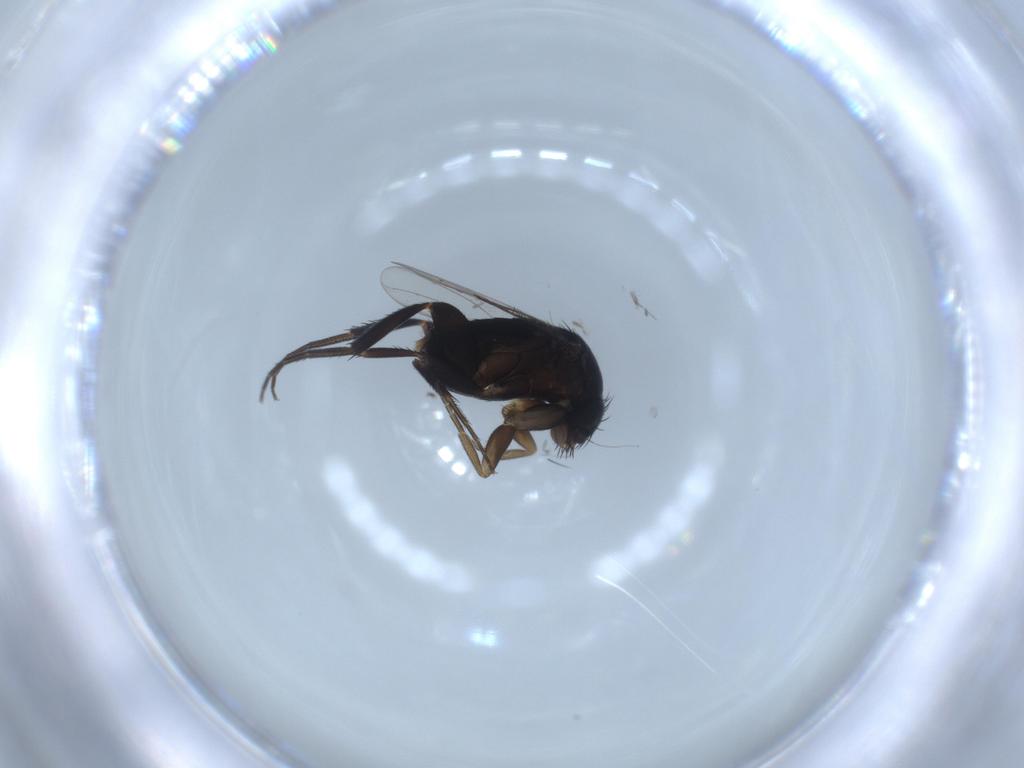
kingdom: Animalia
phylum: Arthropoda
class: Insecta
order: Diptera
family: Phoridae
